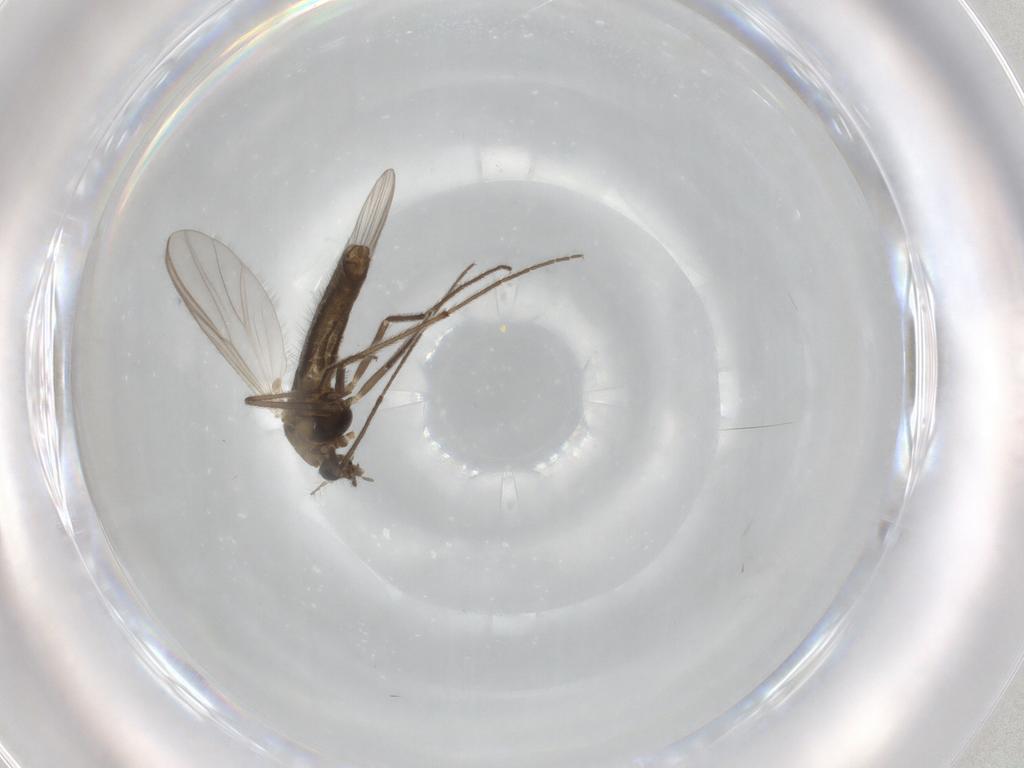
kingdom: Animalia
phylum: Arthropoda
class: Insecta
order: Diptera
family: Chironomidae
